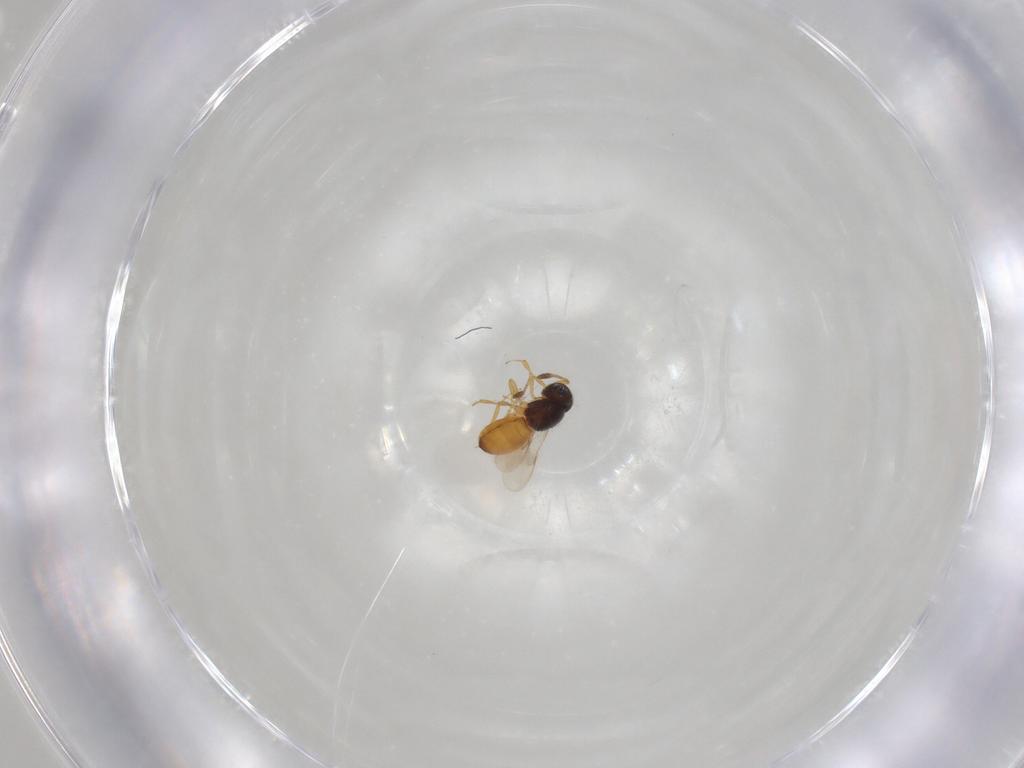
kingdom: Animalia
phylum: Arthropoda
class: Insecta
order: Hymenoptera
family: Scelionidae
